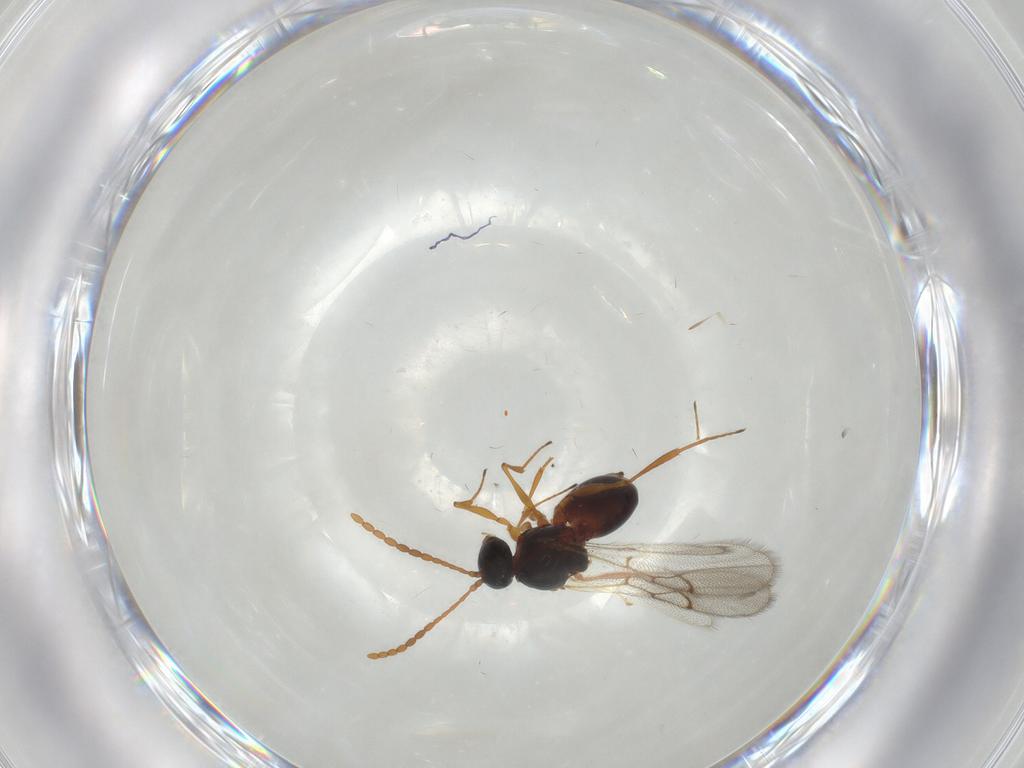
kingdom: Animalia
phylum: Arthropoda
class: Insecta
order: Hymenoptera
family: Figitidae
